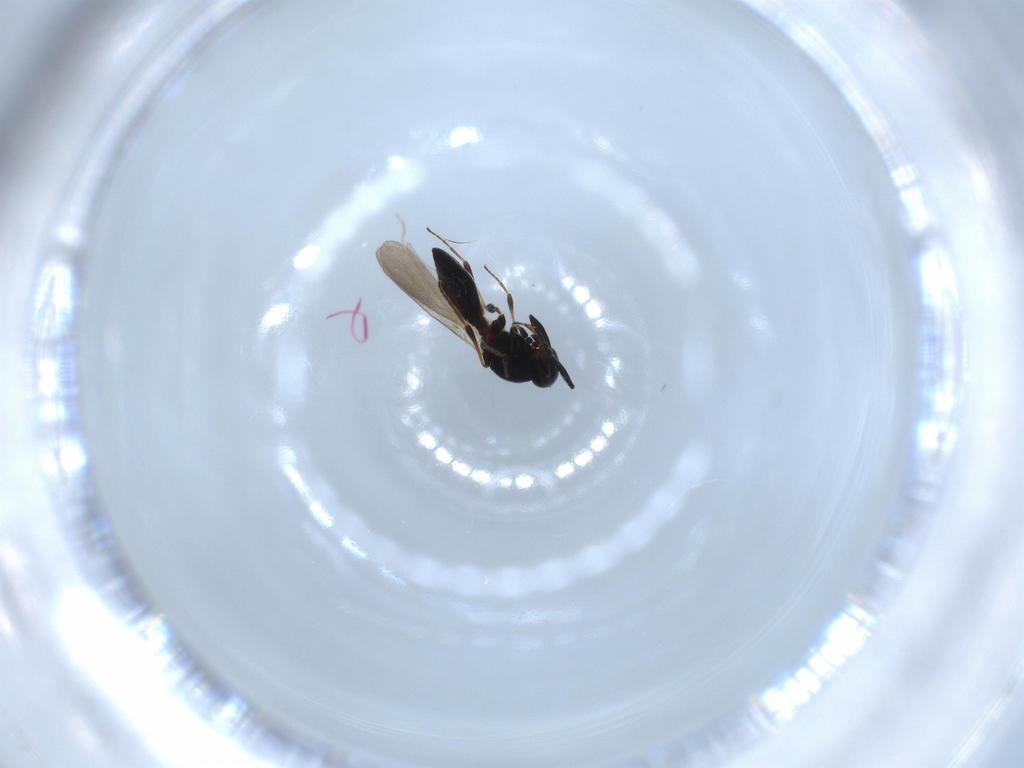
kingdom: Animalia
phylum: Arthropoda
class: Insecta
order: Hymenoptera
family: Platygastridae
